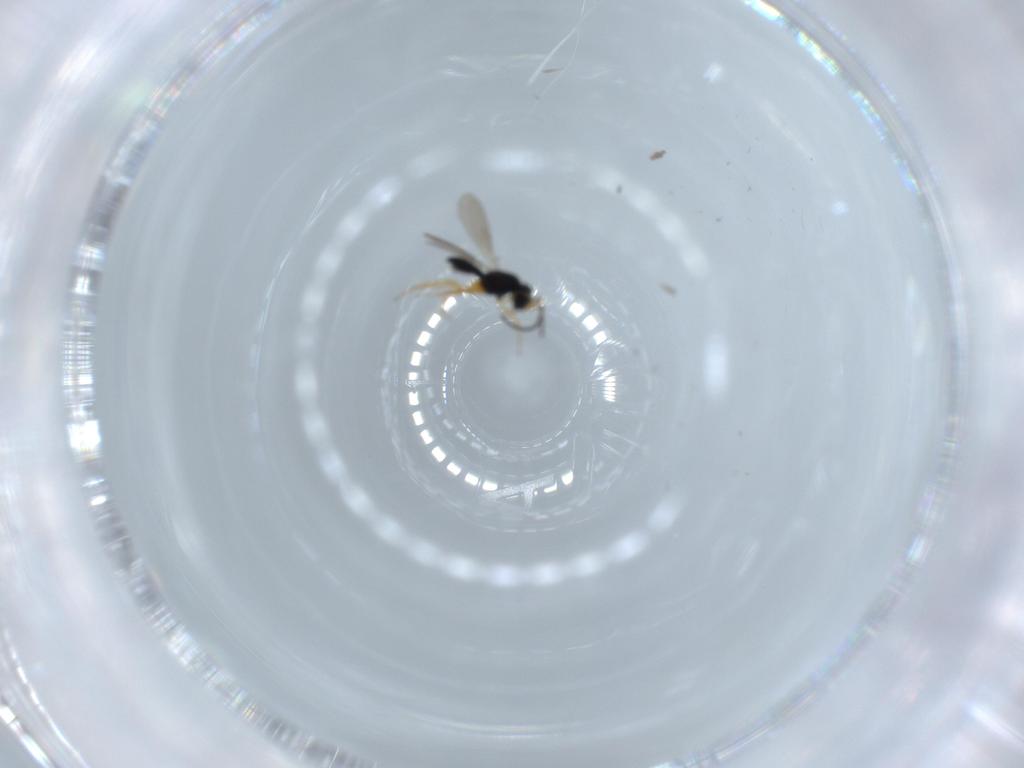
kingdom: Animalia
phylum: Arthropoda
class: Insecta
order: Hymenoptera
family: Scelionidae
